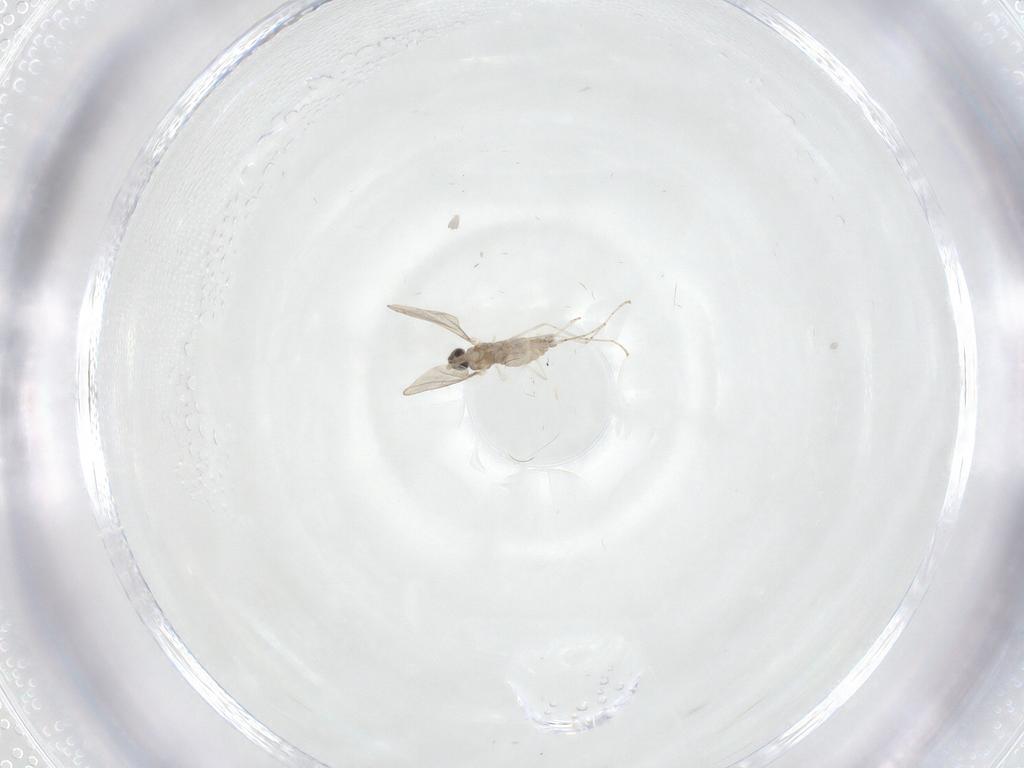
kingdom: Animalia
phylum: Arthropoda
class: Insecta
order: Diptera
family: Cecidomyiidae
